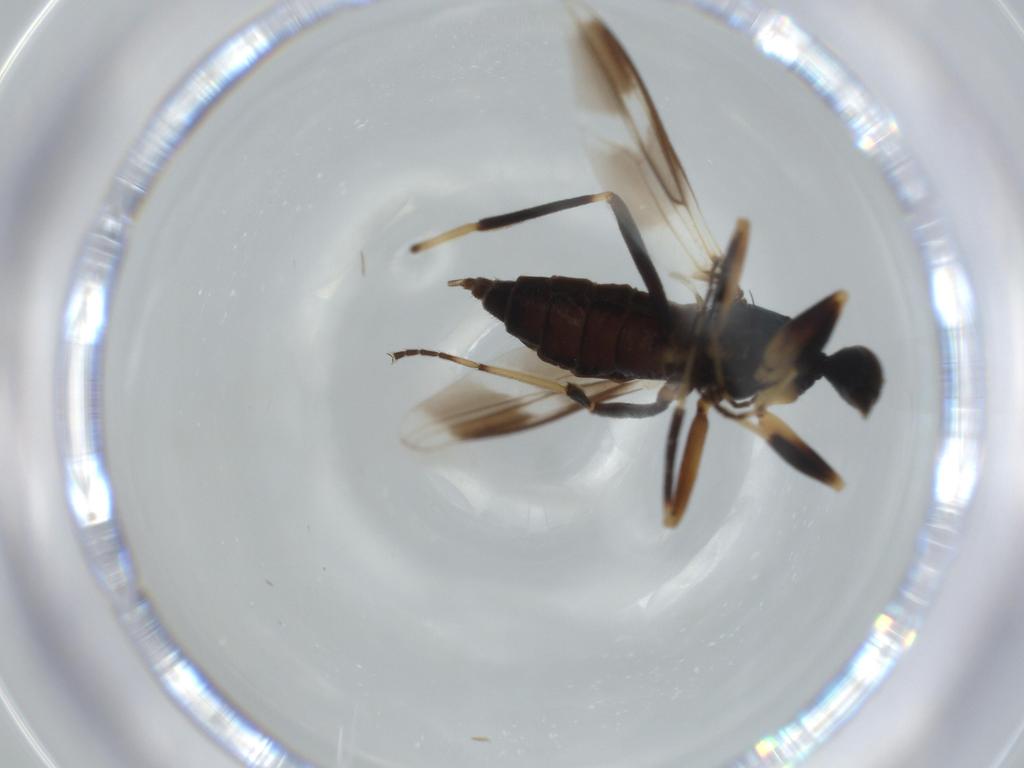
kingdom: Animalia
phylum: Arthropoda
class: Insecta
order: Diptera
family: Hybotidae
